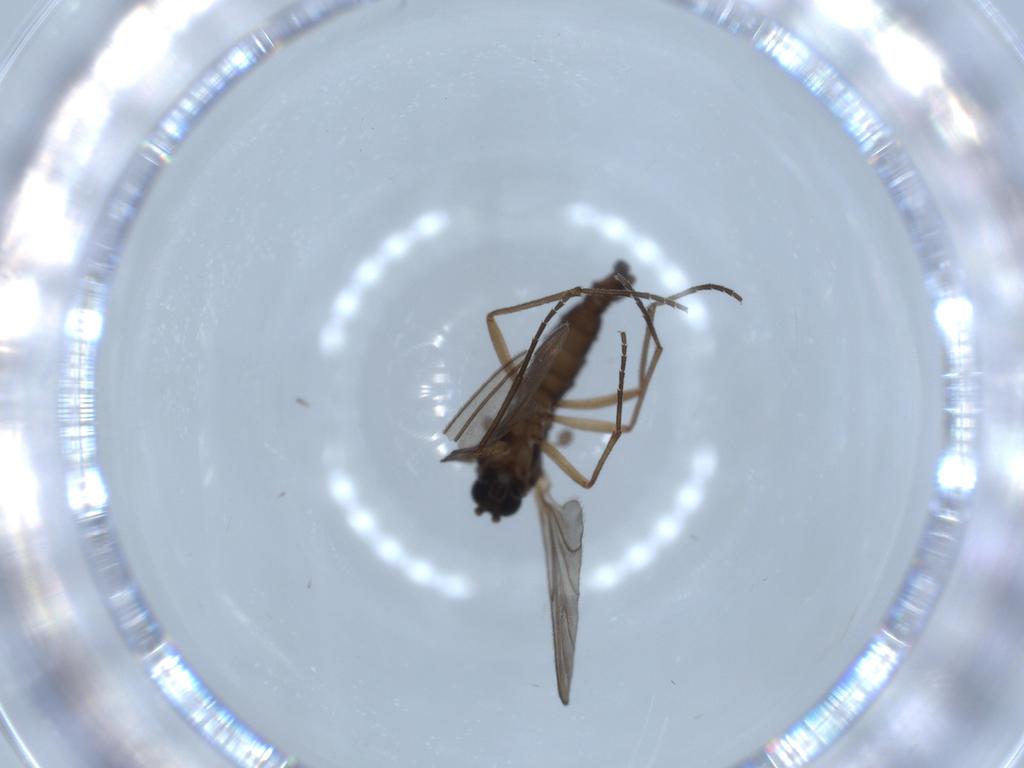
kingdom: Animalia
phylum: Arthropoda
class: Insecta
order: Diptera
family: Sciaridae
